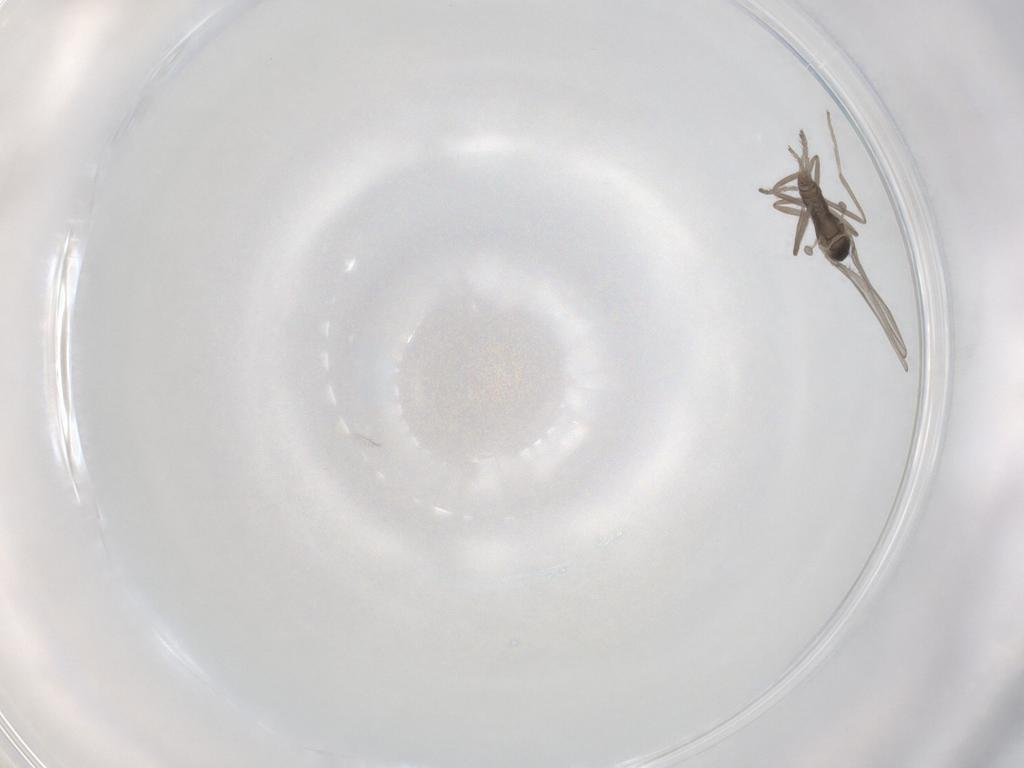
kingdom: Animalia
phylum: Arthropoda
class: Insecta
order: Diptera
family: Cecidomyiidae
